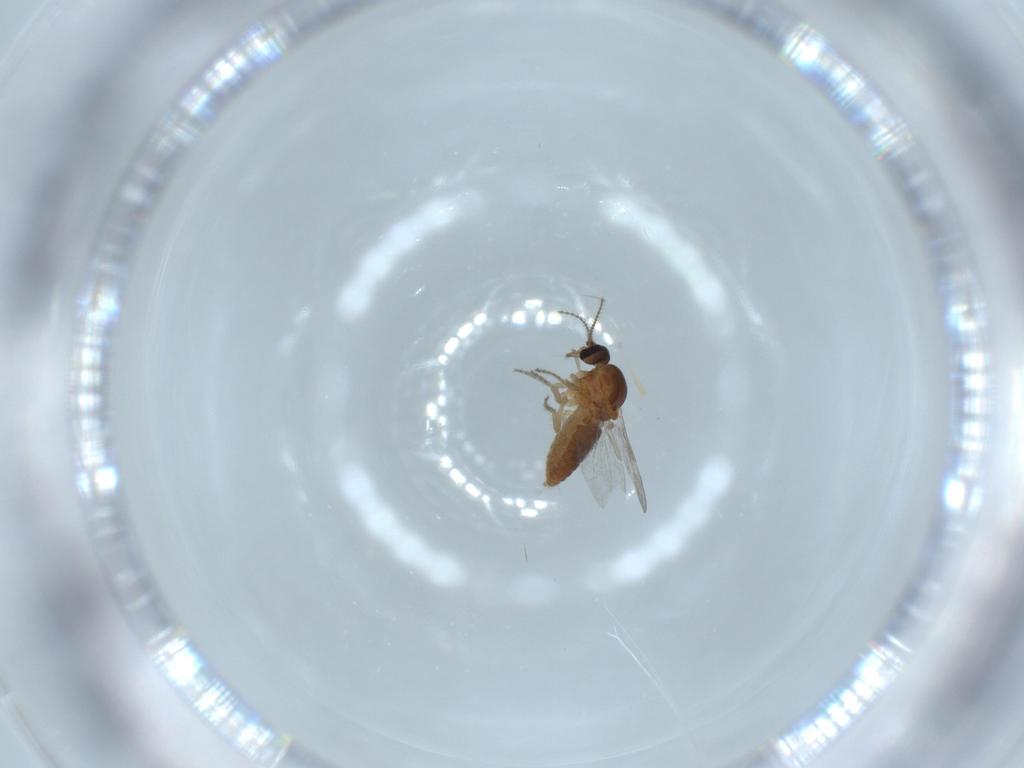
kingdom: Animalia
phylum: Arthropoda
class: Insecta
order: Diptera
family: Ceratopogonidae
